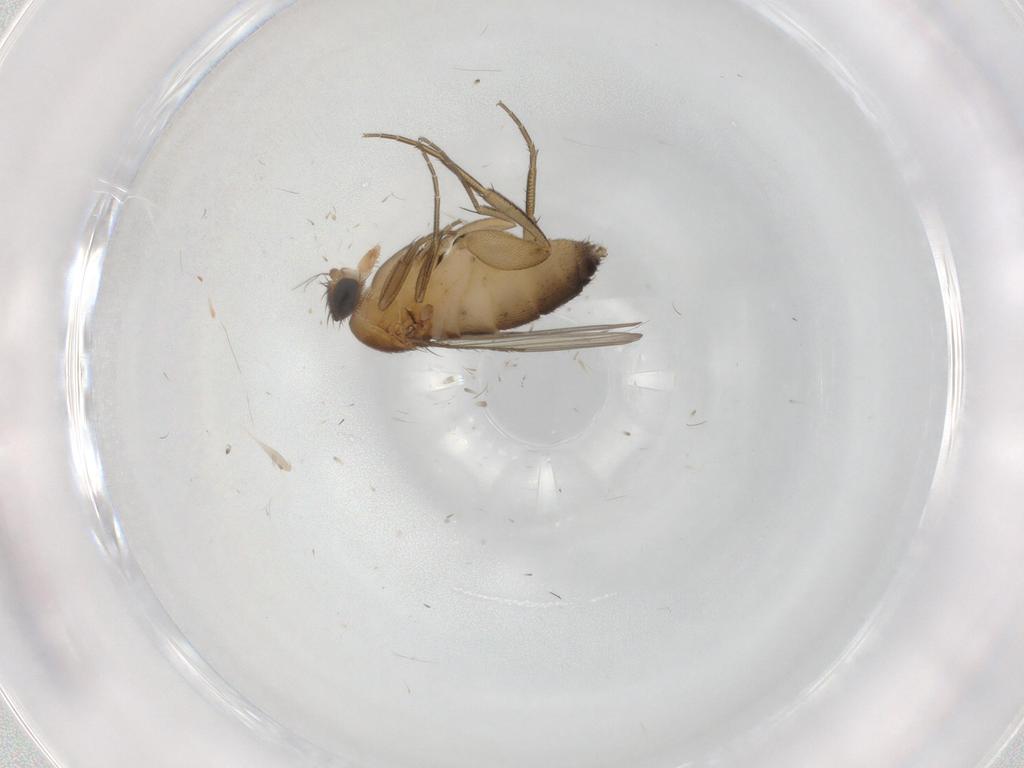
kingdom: Animalia
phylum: Arthropoda
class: Insecta
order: Diptera
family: Phoridae
